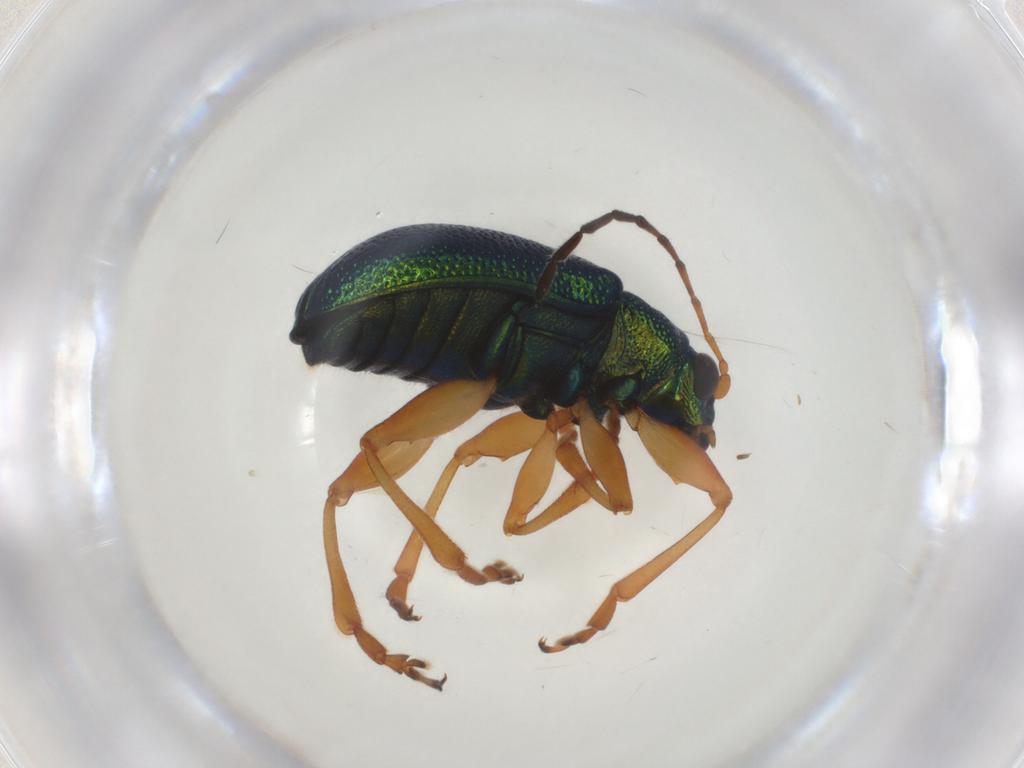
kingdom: Animalia
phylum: Arthropoda
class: Insecta
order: Coleoptera
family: Chrysomelidae
